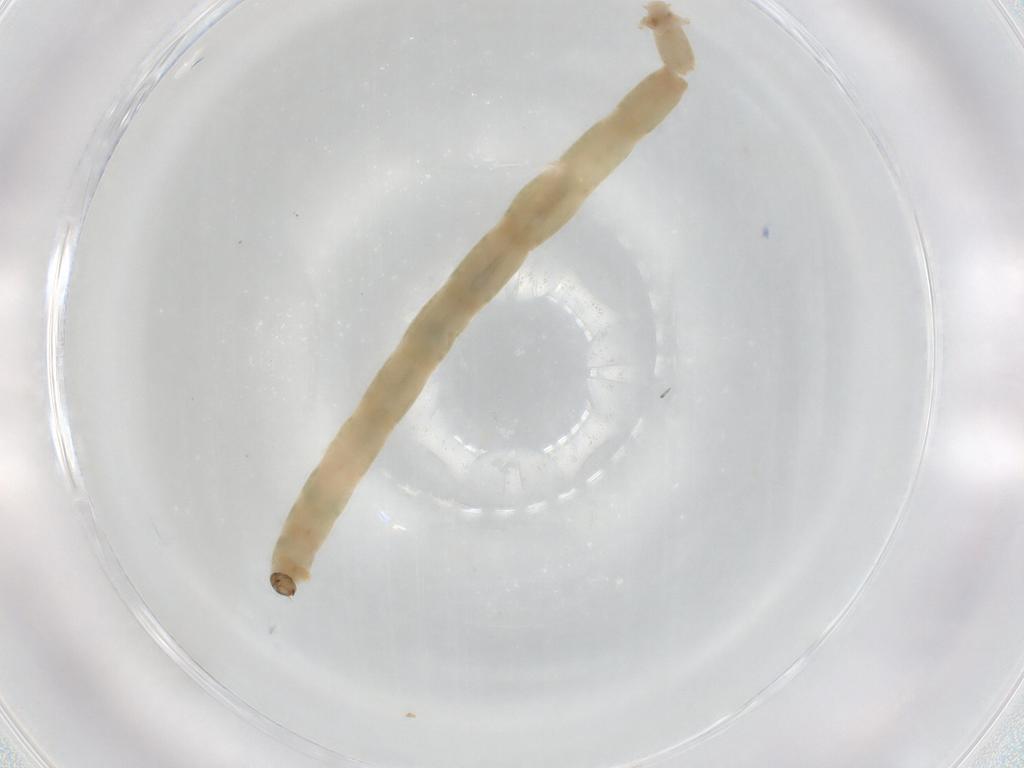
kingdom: Animalia
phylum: Arthropoda
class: Insecta
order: Diptera
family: Chironomidae
